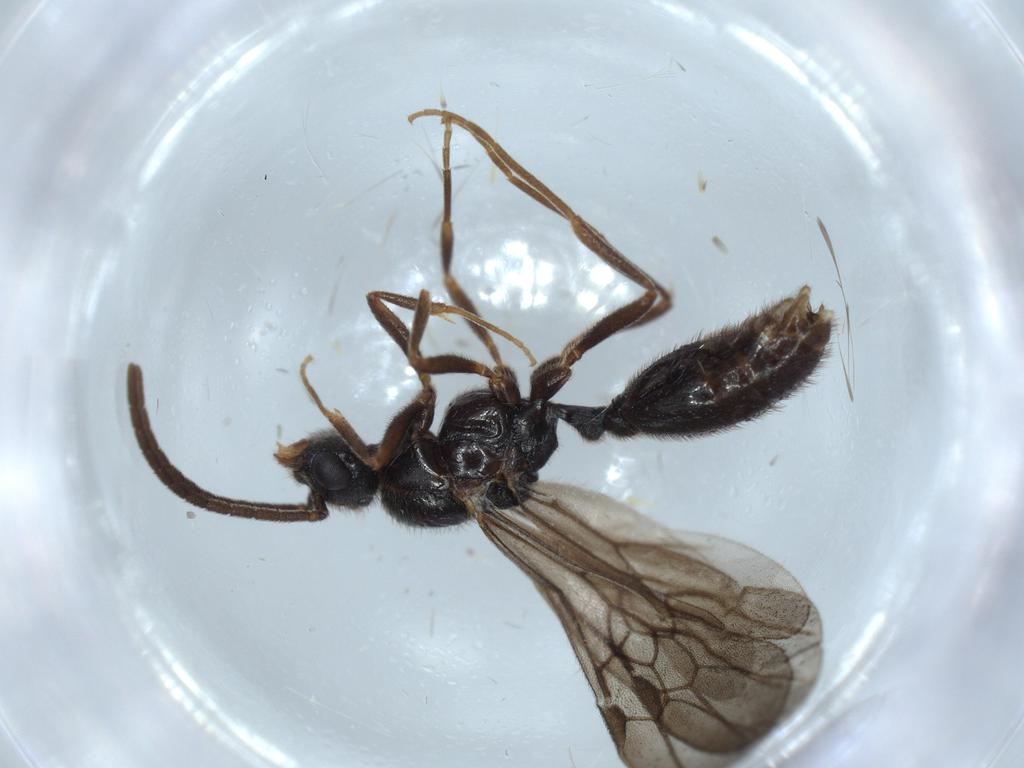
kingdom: Animalia
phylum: Arthropoda
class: Insecta
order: Hymenoptera
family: Formicidae
